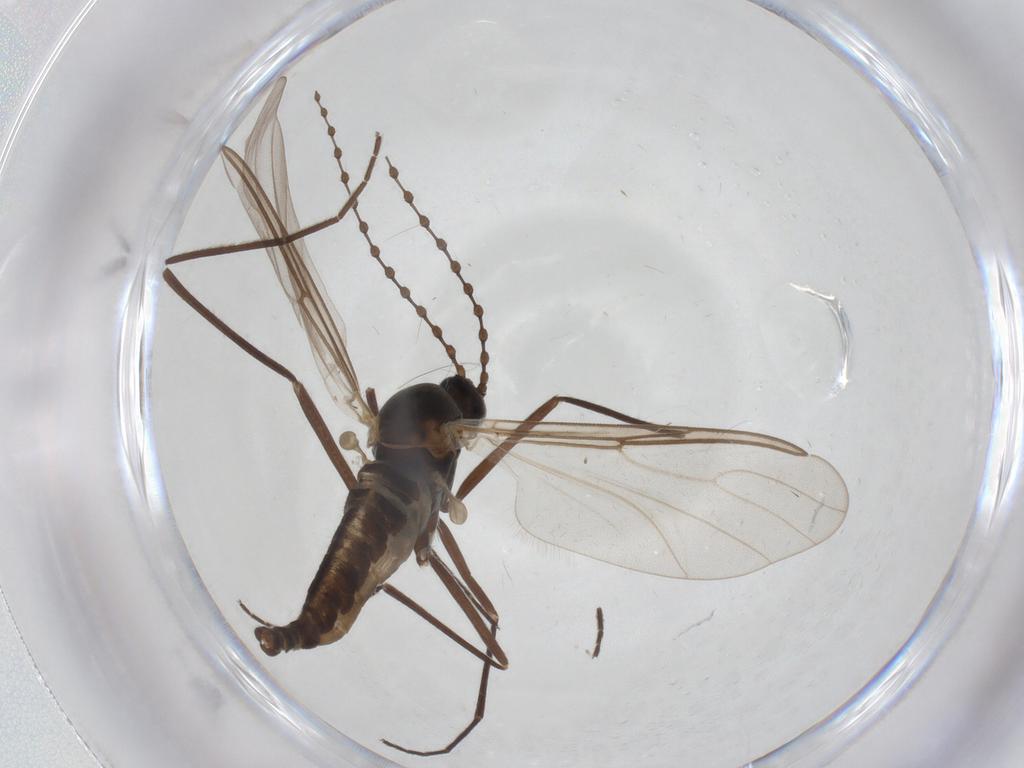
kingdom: Animalia
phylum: Arthropoda
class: Insecta
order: Diptera
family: Cecidomyiidae
